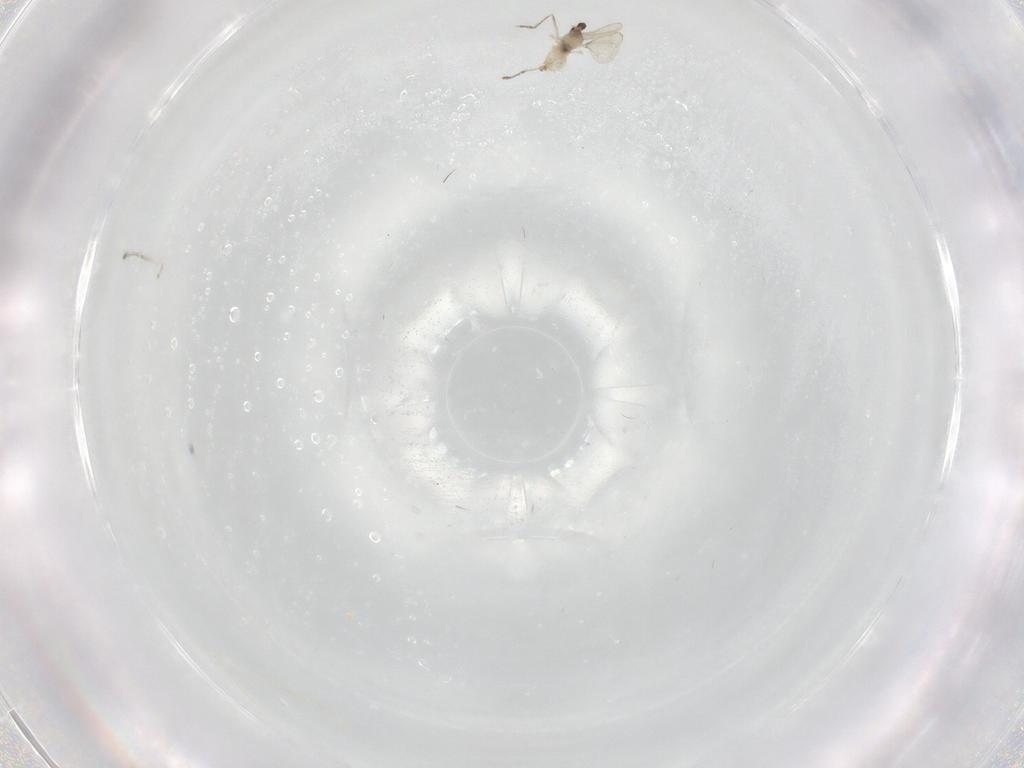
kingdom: Animalia
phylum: Arthropoda
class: Insecta
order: Diptera
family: Cecidomyiidae
